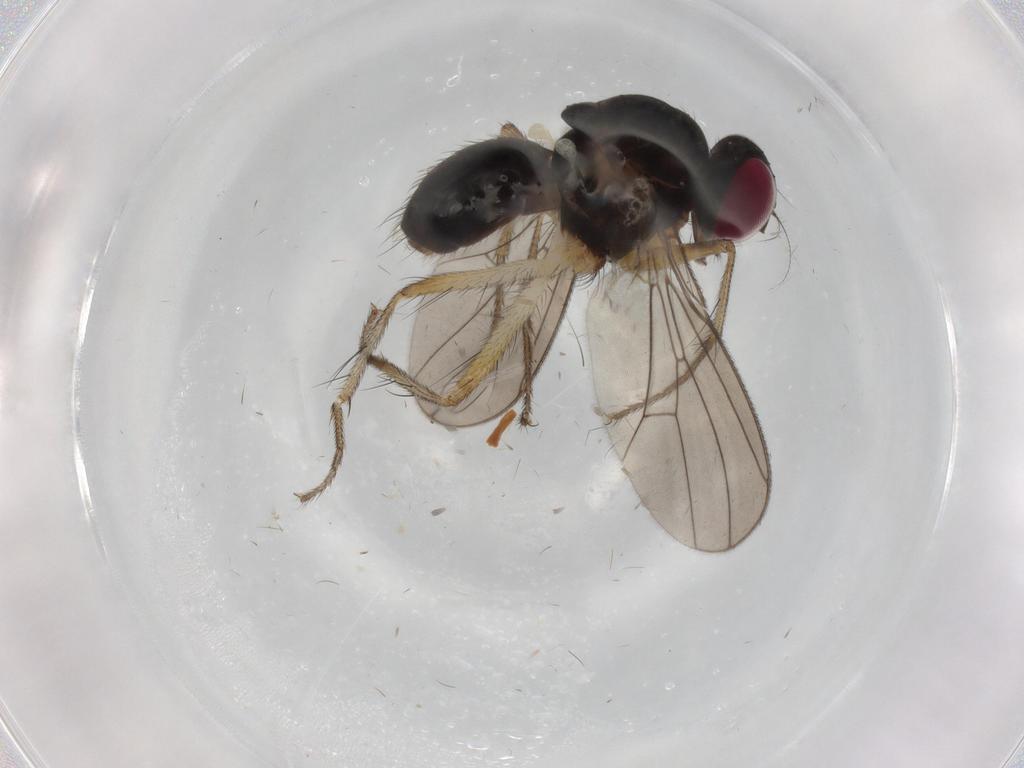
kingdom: Animalia
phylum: Arthropoda
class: Insecta
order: Diptera
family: Anthomyiidae
